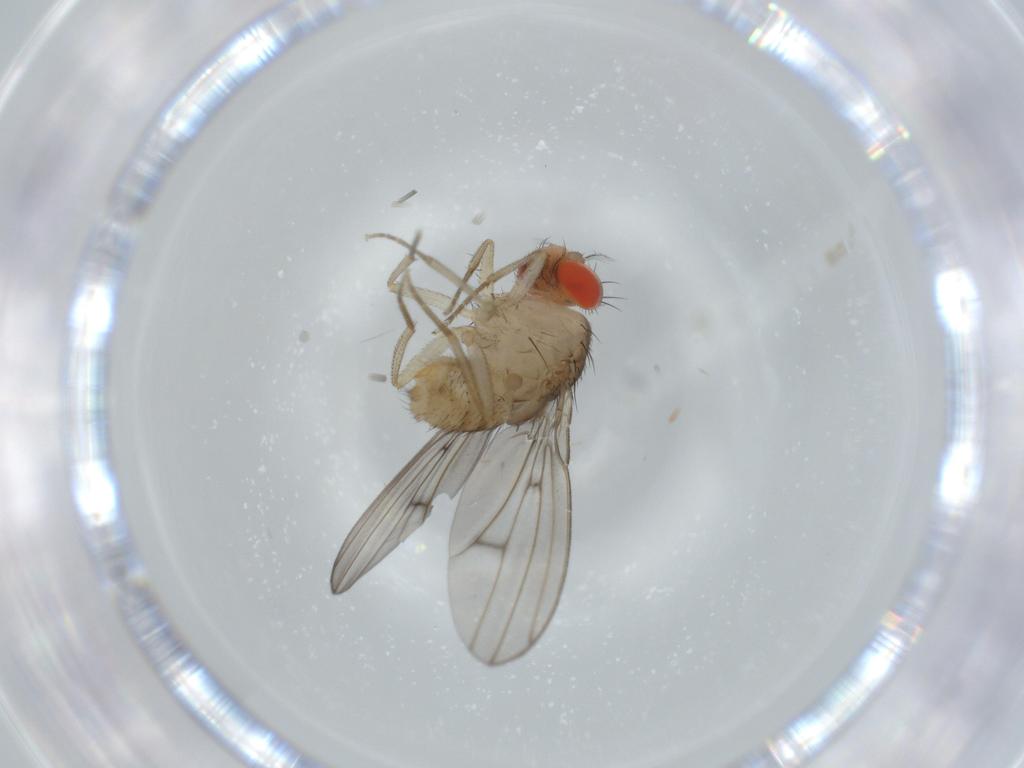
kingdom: Animalia
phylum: Arthropoda
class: Insecta
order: Diptera
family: Drosophilidae
